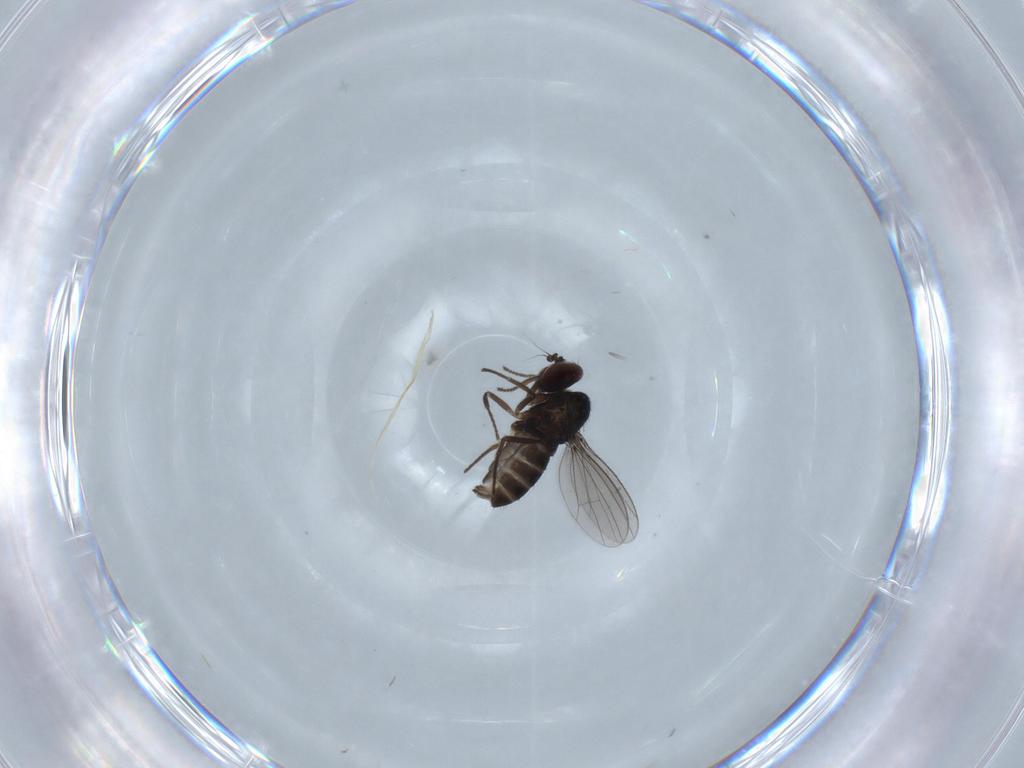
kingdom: Animalia
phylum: Arthropoda
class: Insecta
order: Diptera
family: Dolichopodidae
